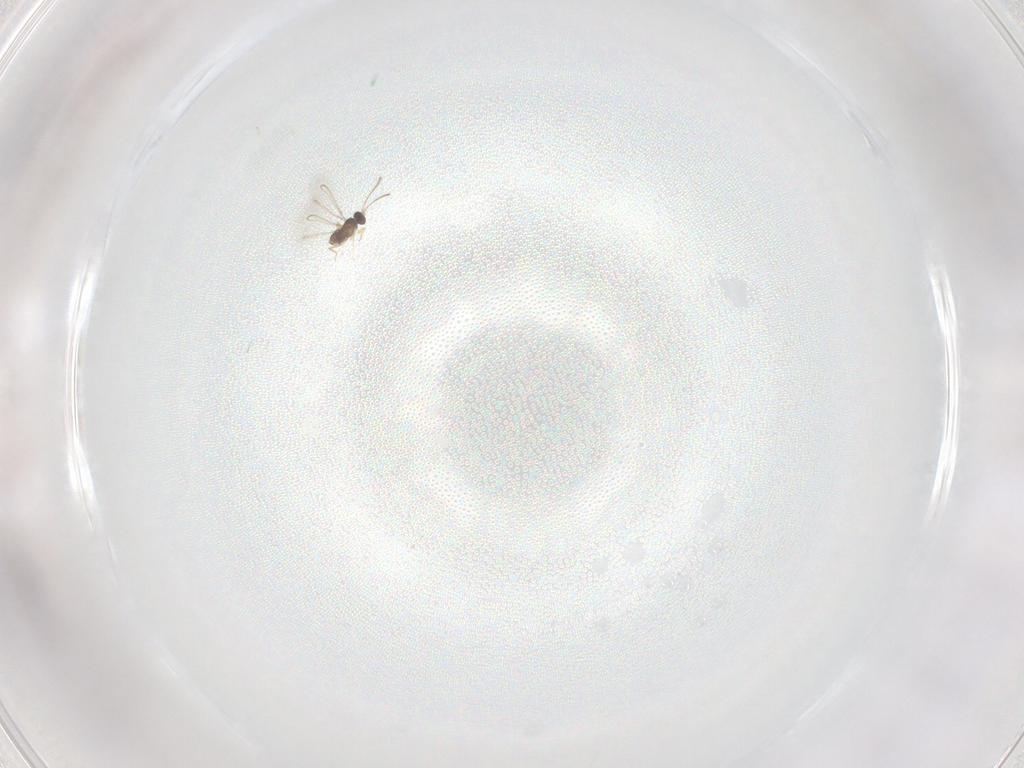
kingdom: Animalia
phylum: Arthropoda
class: Insecta
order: Hymenoptera
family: Mymaridae
